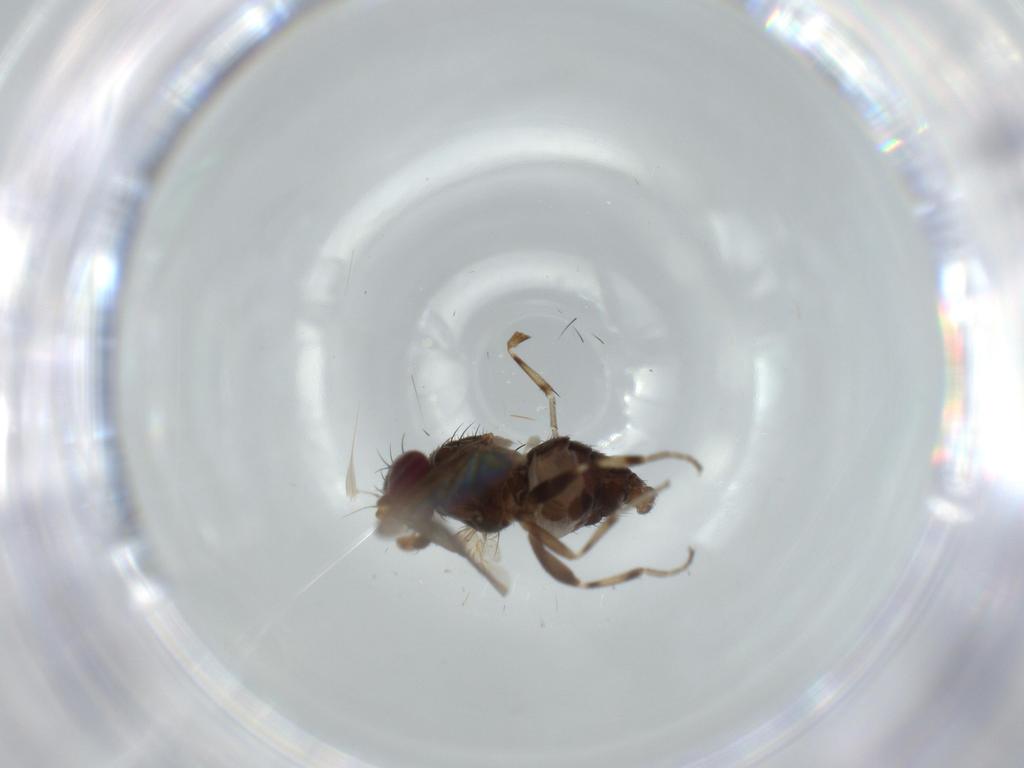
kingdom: Animalia
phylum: Arthropoda
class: Insecta
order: Diptera
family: Heleomyzidae
